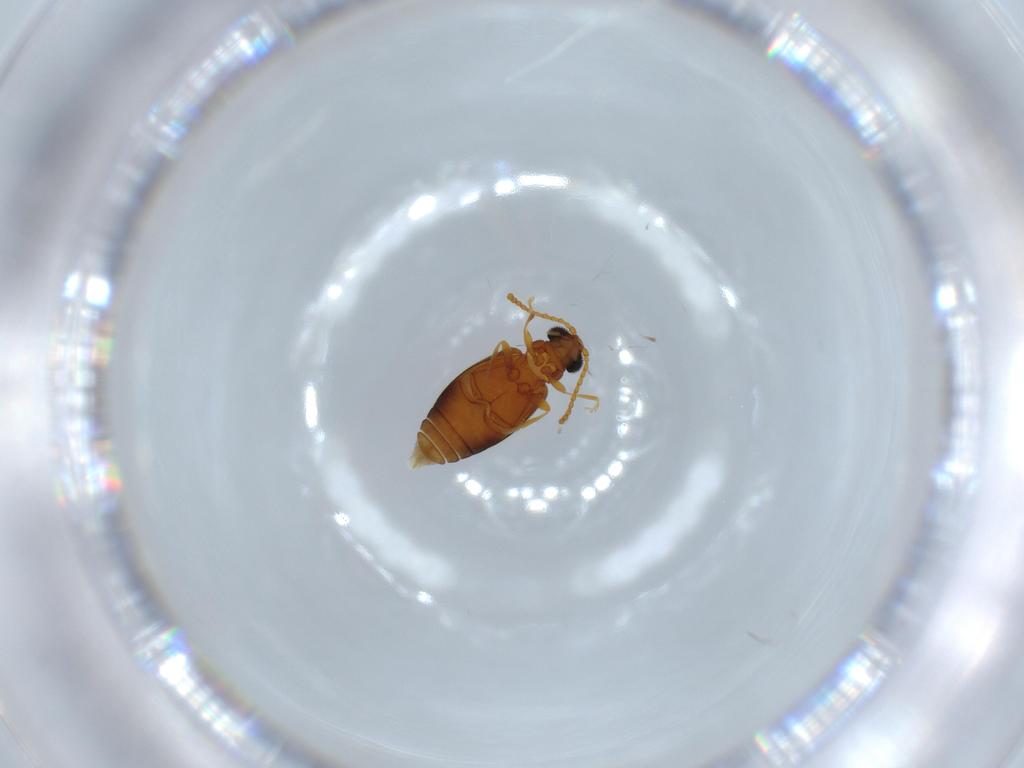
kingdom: Animalia
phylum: Arthropoda
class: Insecta
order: Coleoptera
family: Aderidae
